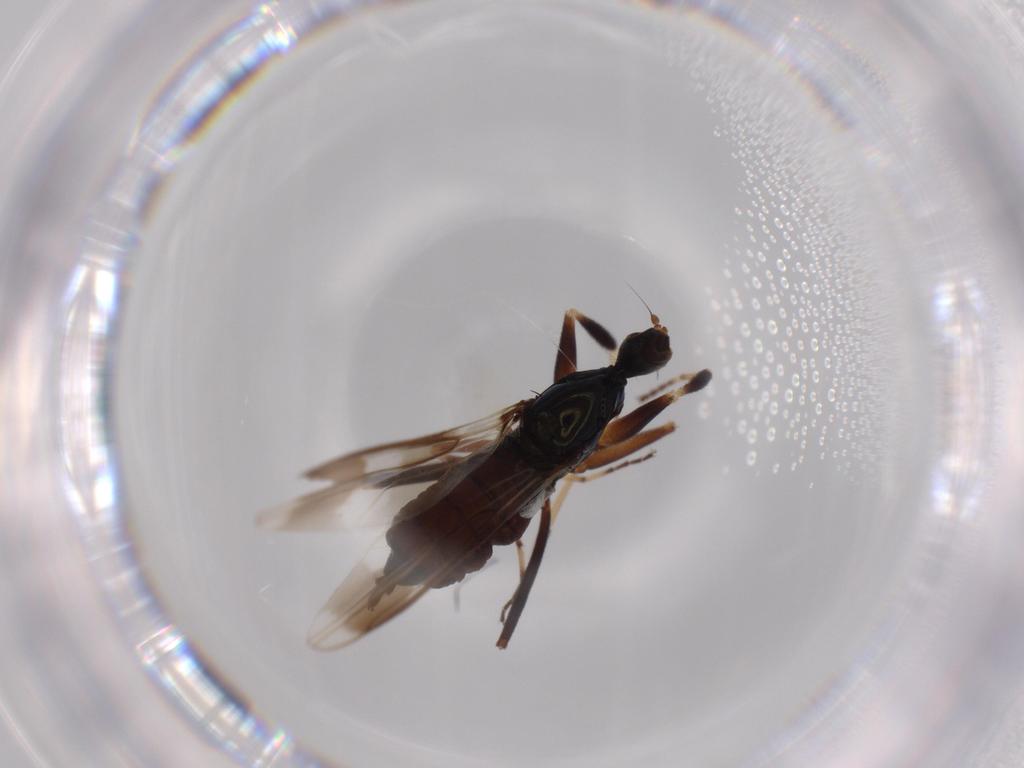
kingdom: Animalia
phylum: Arthropoda
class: Insecta
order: Diptera
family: Hybotidae
